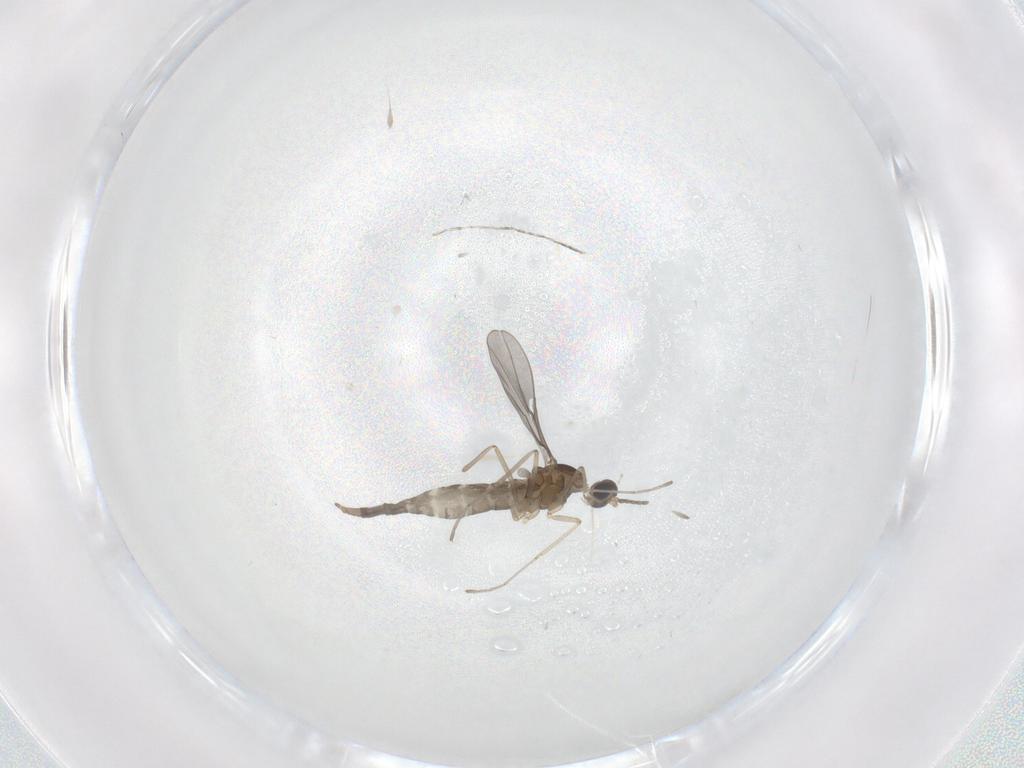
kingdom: Animalia
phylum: Arthropoda
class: Insecta
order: Diptera
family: Cecidomyiidae
